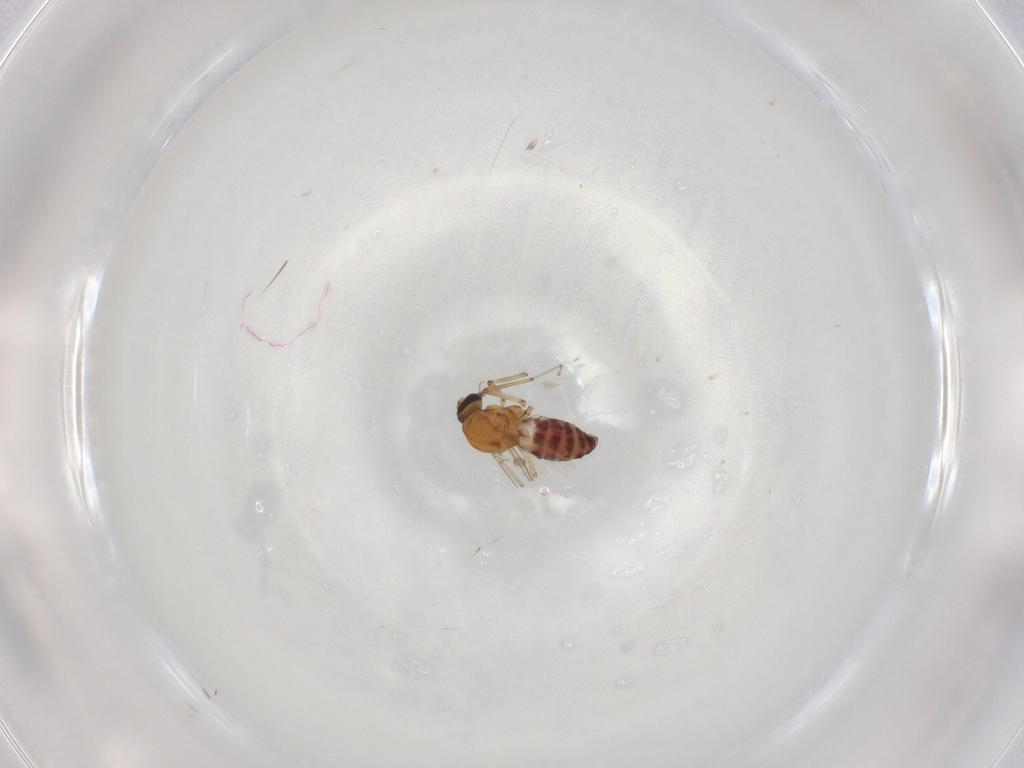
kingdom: Animalia
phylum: Arthropoda
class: Insecta
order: Diptera
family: Ceratopogonidae
